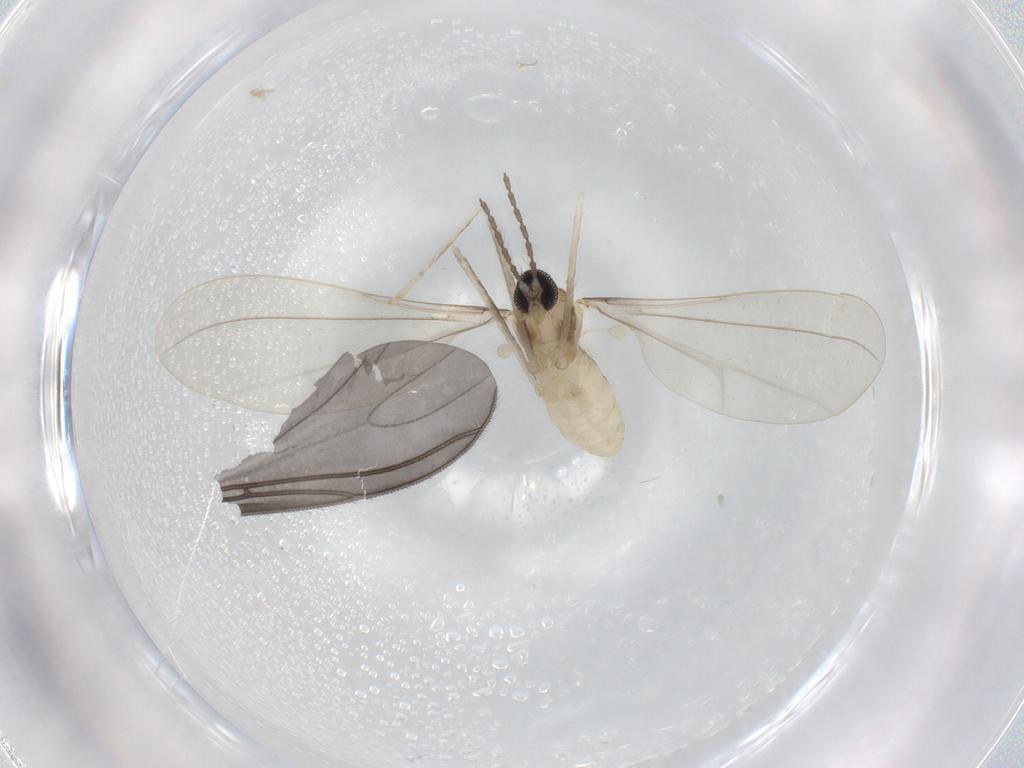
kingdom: Animalia
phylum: Arthropoda
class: Insecta
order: Diptera
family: Cecidomyiidae
